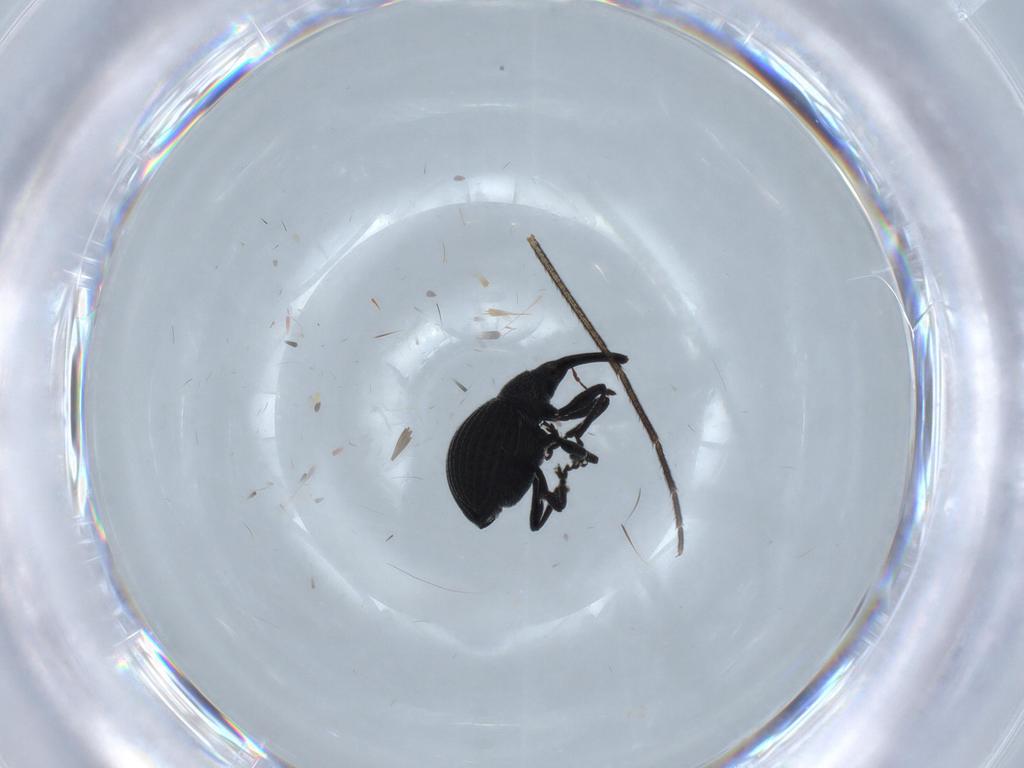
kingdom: Animalia
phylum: Arthropoda
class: Insecta
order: Coleoptera
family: Brentidae
